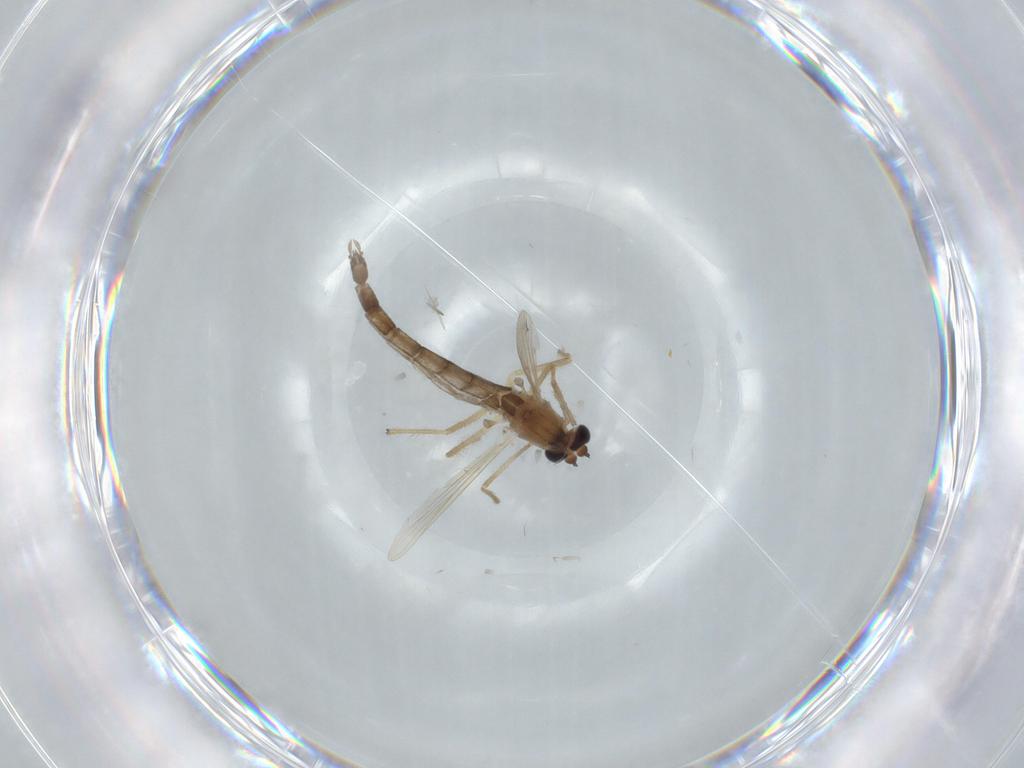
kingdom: Animalia
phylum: Arthropoda
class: Insecta
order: Diptera
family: Chironomidae
